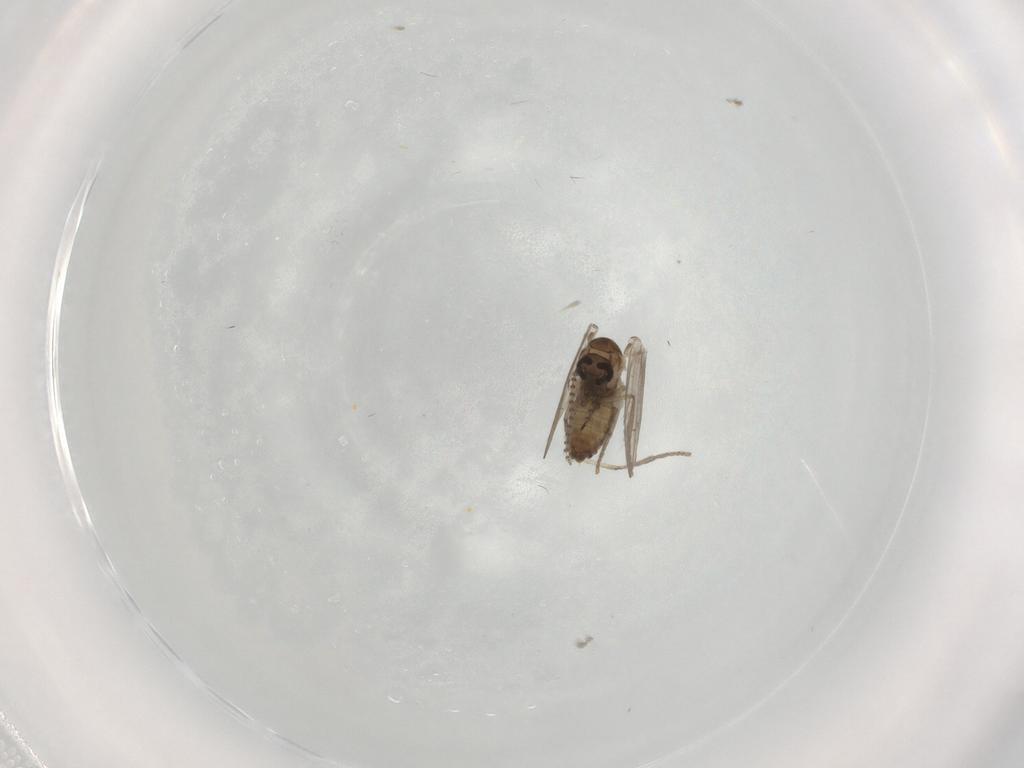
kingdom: Animalia
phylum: Arthropoda
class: Insecta
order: Diptera
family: Psychodidae
